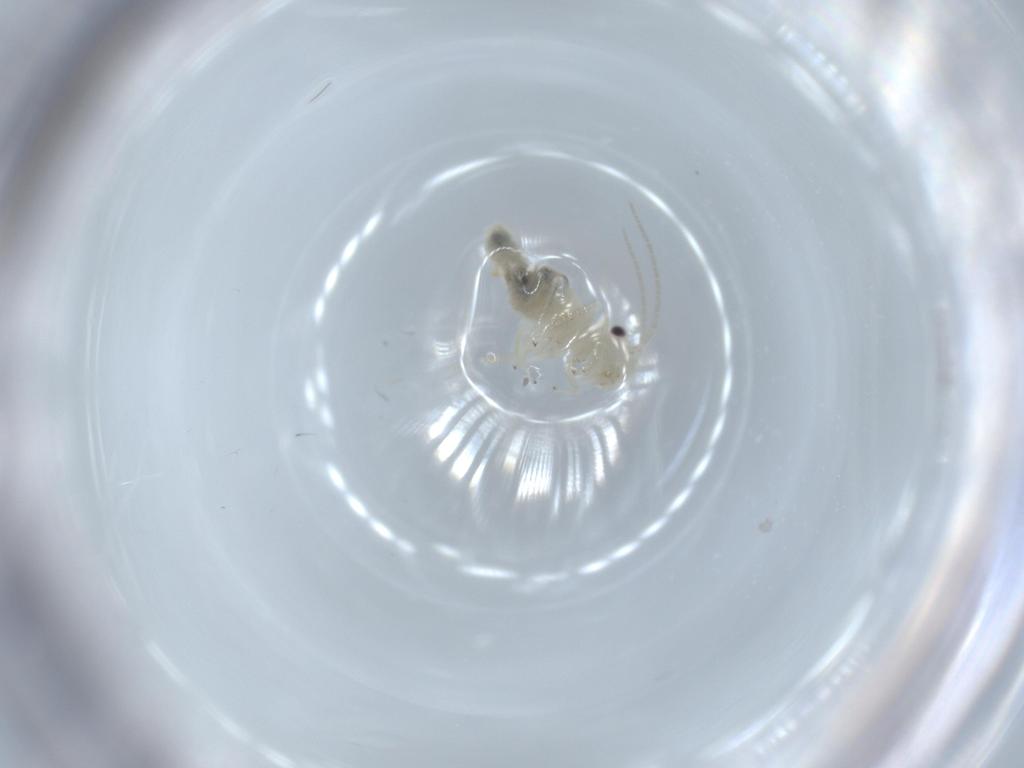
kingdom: Animalia
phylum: Arthropoda
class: Insecta
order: Psocodea
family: Caeciliusidae
